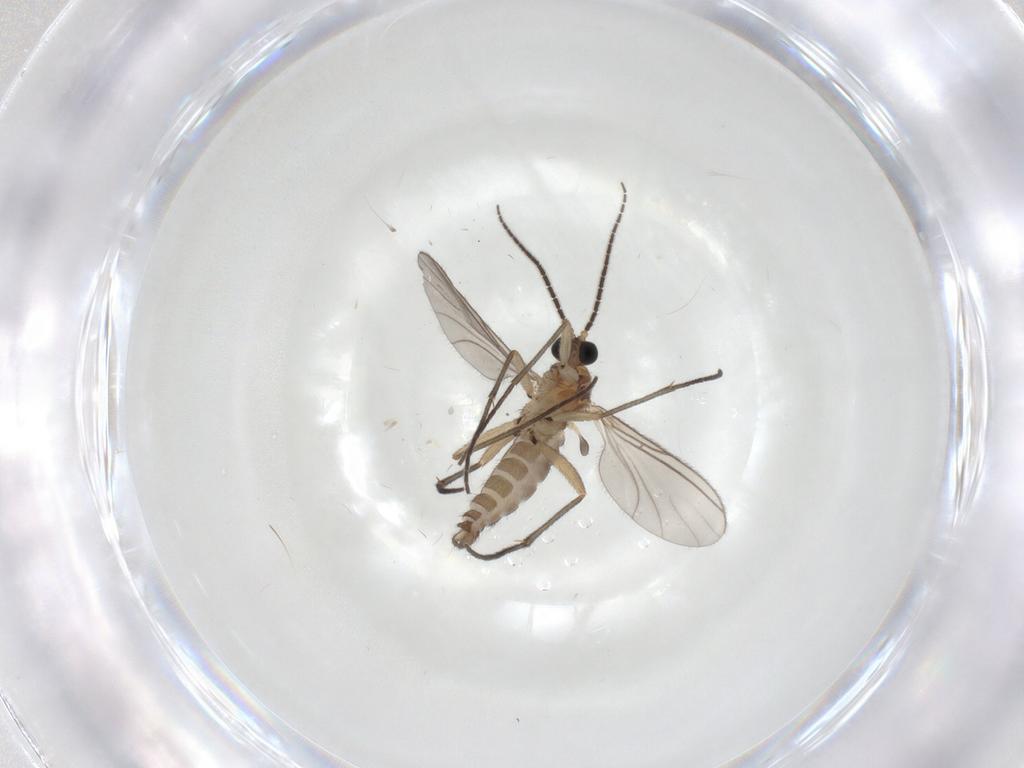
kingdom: Animalia
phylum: Arthropoda
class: Insecta
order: Diptera
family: Sciaridae
